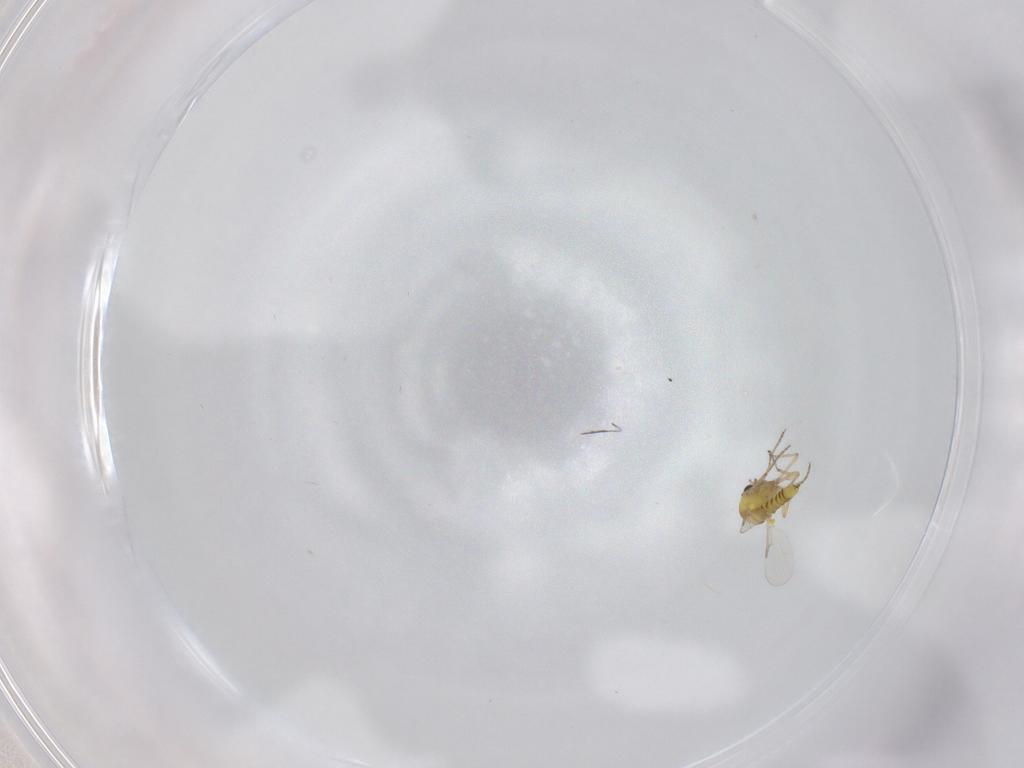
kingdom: Animalia
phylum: Arthropoda
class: Insecta
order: Diptera
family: Ceratopogonidae
